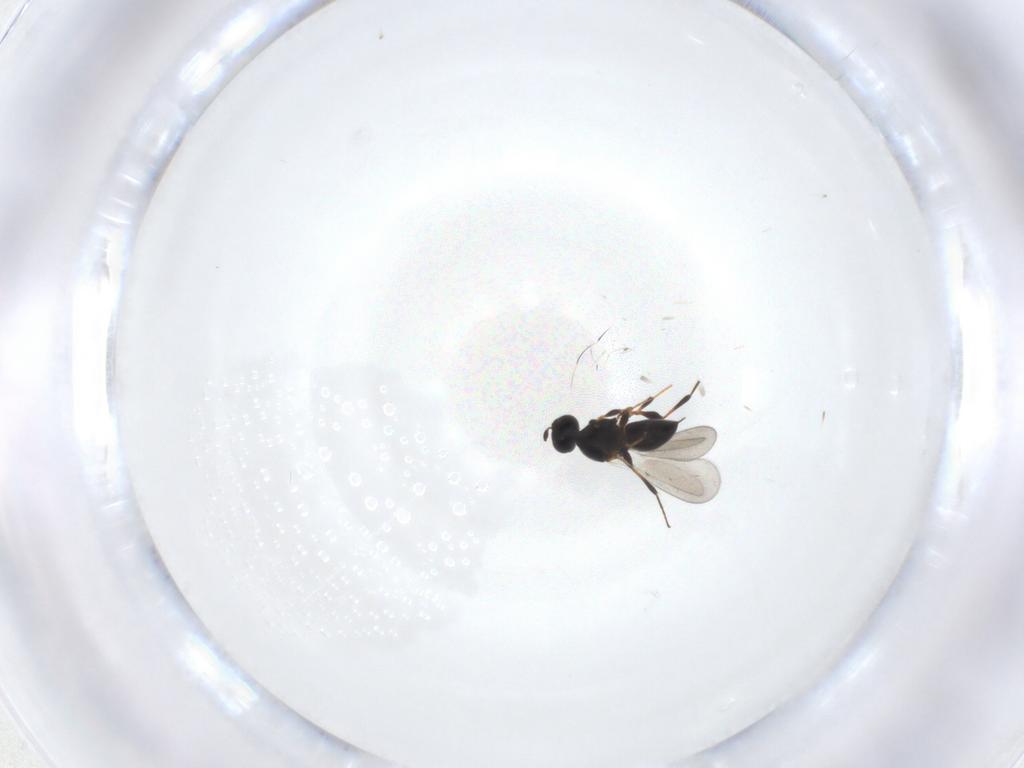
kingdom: Animalia
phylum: Arthropoda
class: Insecta
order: Hymenoptera
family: Platygastridae
